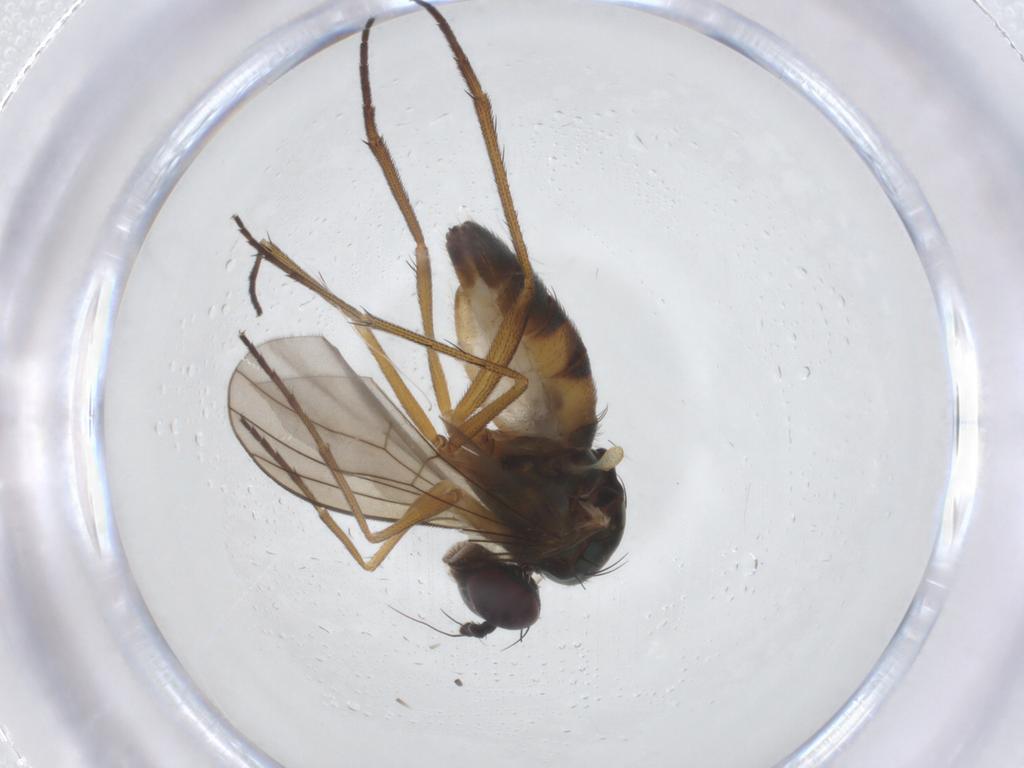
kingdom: Animalia
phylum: Arthropoda
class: Insecta
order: Diptera
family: Dolichopodidae
